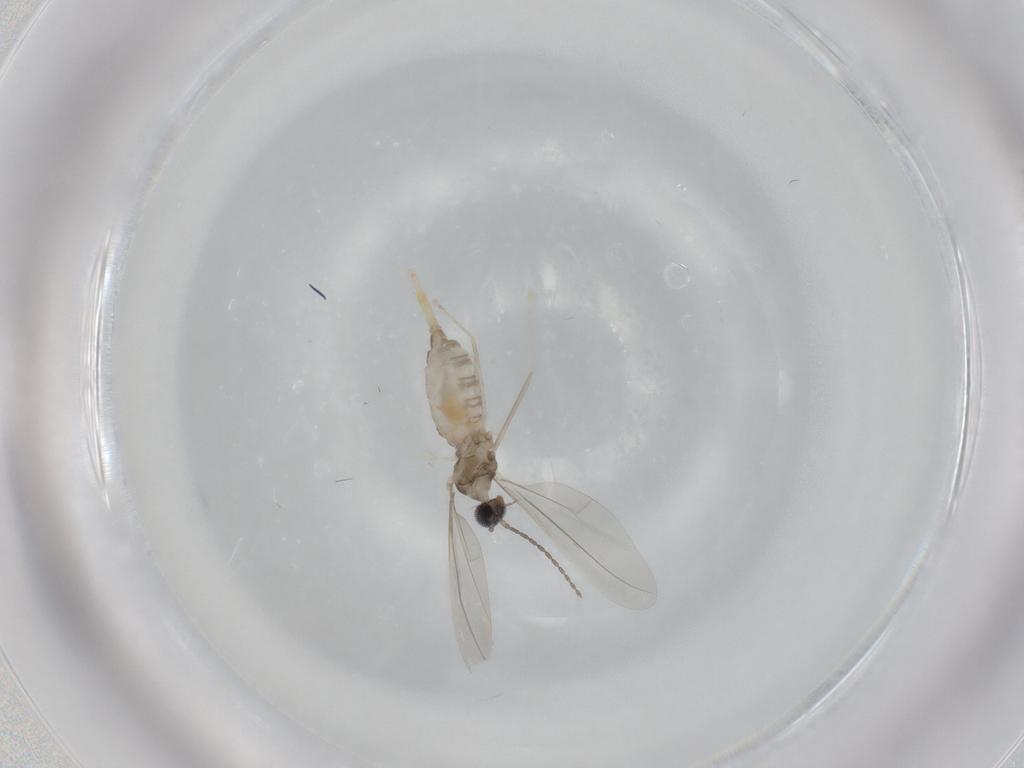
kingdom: Animalia
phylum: Arthropoda
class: Insecta
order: Diptera
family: Cecidomyiidae
